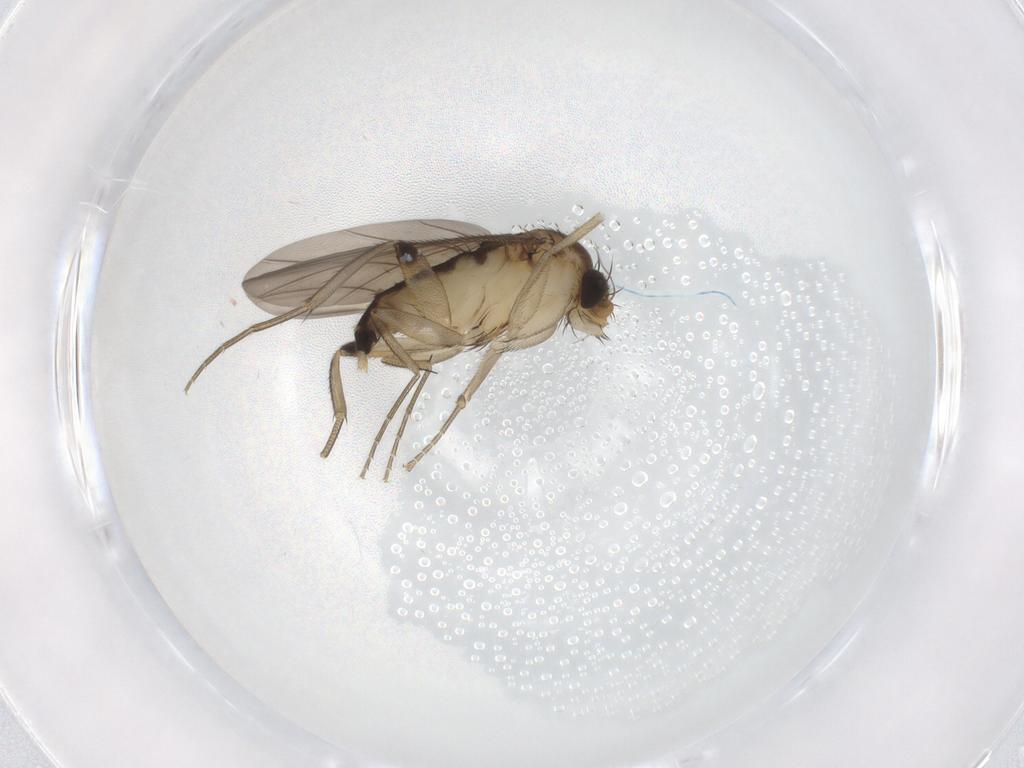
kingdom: Animalia
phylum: Arthropoda
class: Insecta
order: Diptera
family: Phoridae
